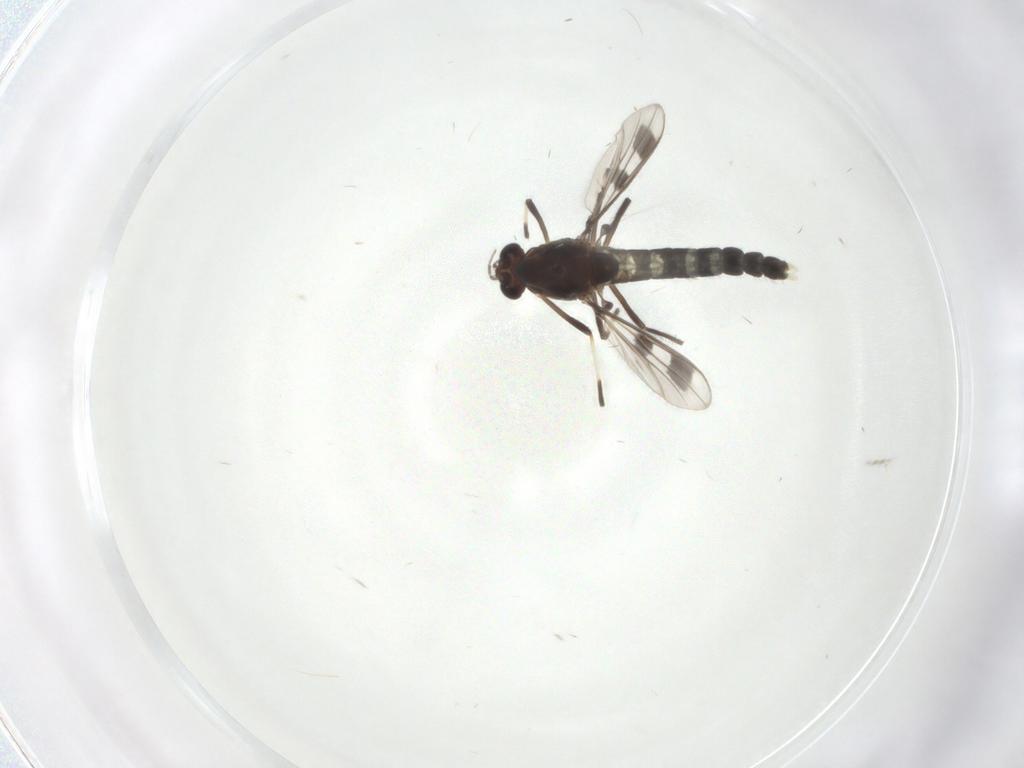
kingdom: Animalia
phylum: Arthropoda
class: Insecta
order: Diptera
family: Chironomidae
